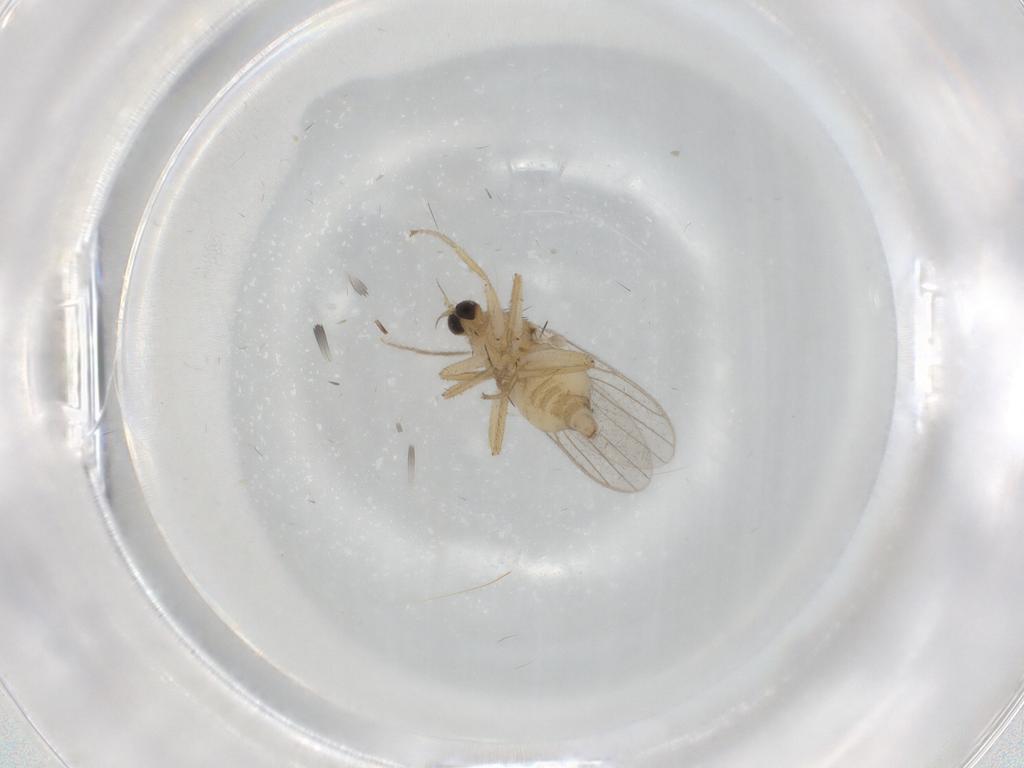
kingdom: Animalia
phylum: Arthropoda
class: Insecta
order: Diptera
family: Hybotidae
